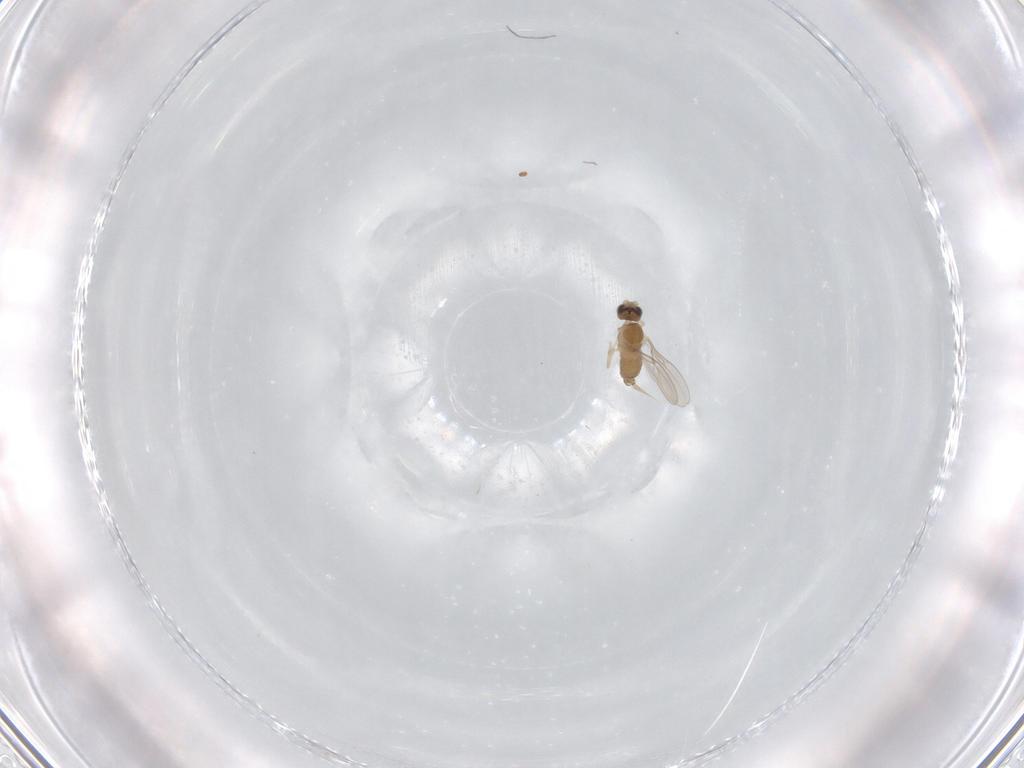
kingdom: Animalia
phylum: Arthropoda
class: Insecta
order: Diptera
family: Cecidomyiidae
